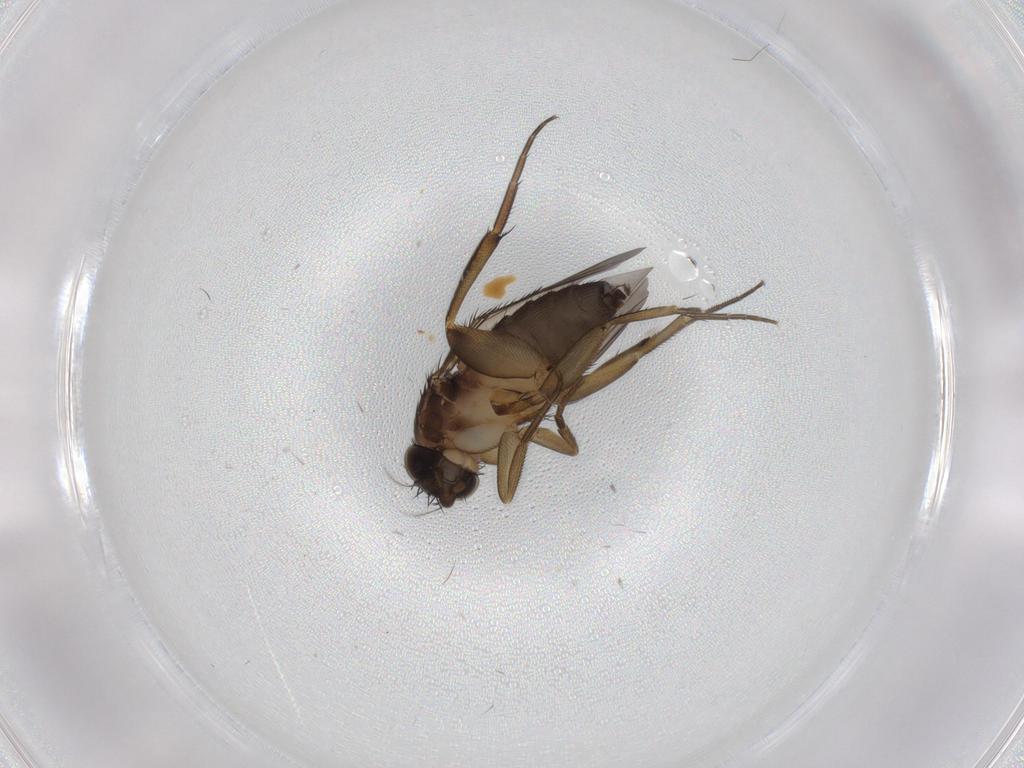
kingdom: Animalia
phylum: Arthropoda
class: Insecta
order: Diptera
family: Phoridae
